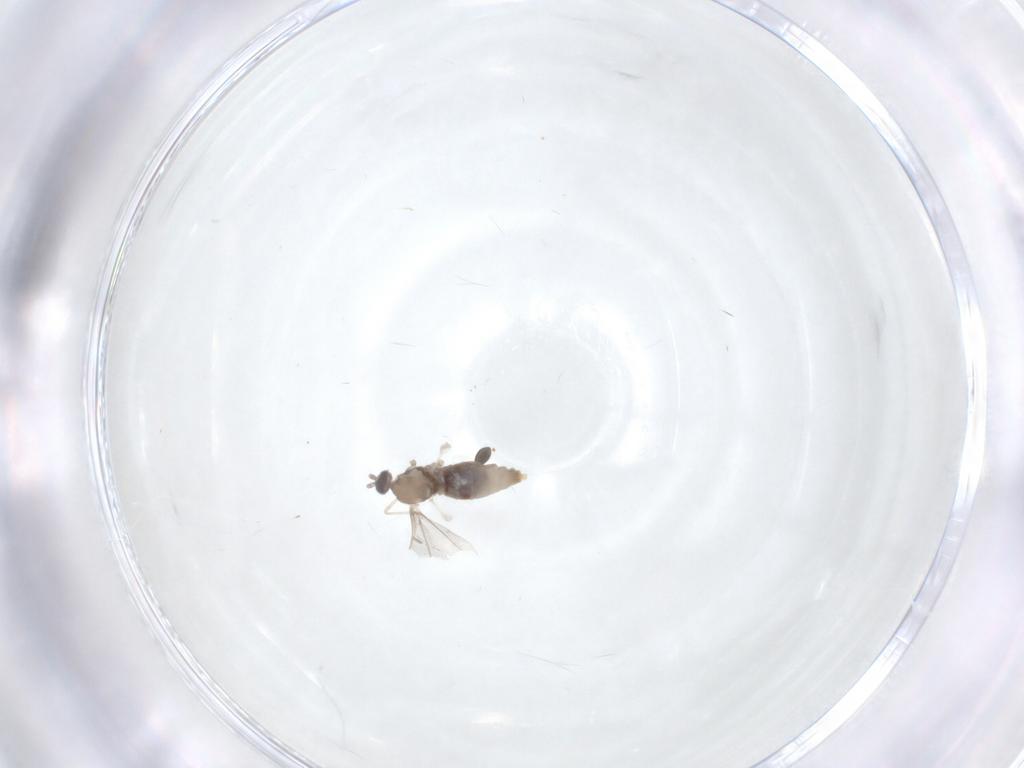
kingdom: Animalia
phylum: Arthropoda
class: Insecta
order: Diptera
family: Cecidomyiidae
